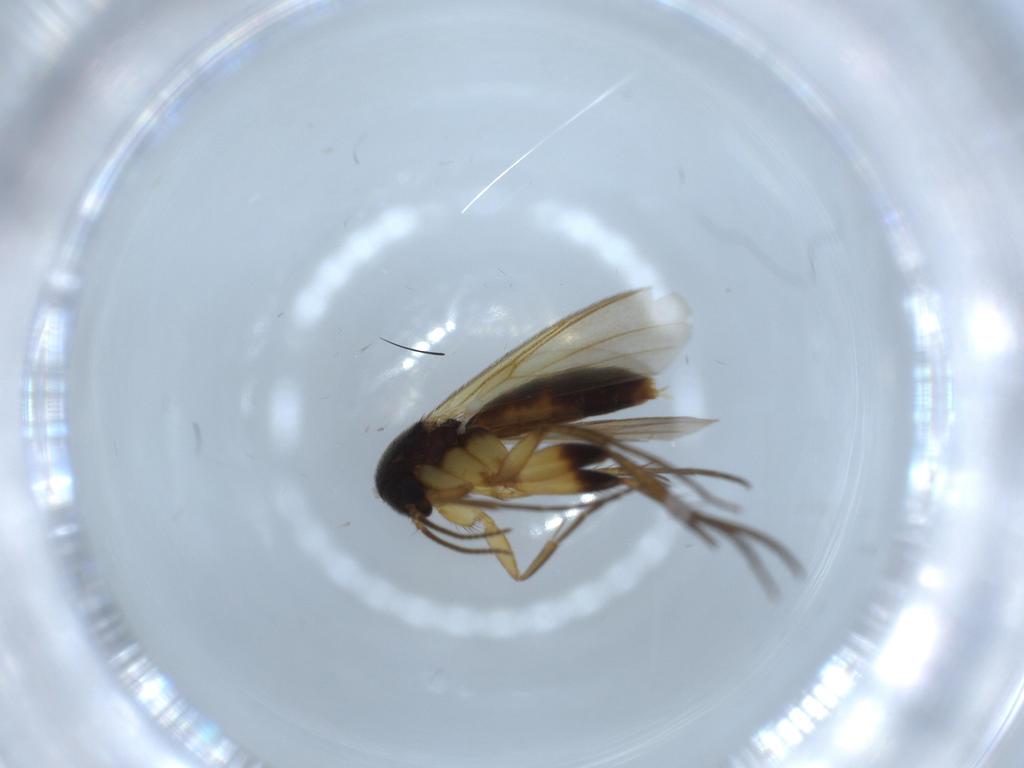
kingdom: Animalia
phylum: Arthropoda
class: Insecta
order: Diptera
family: Mycetophilidae
